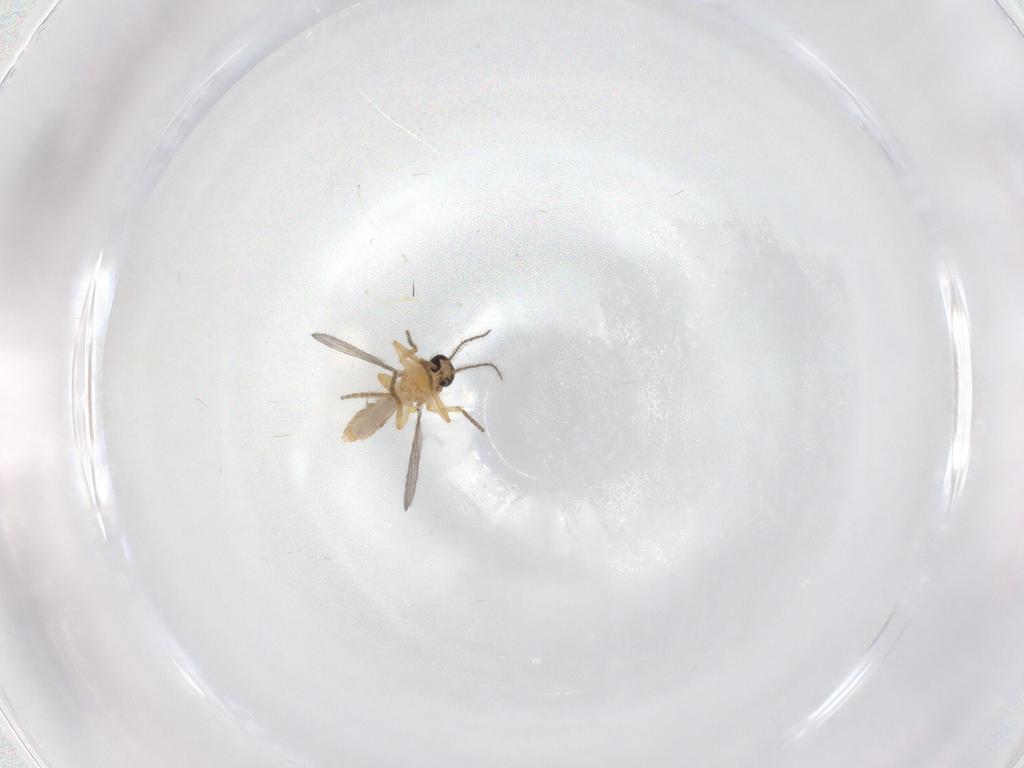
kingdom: Animalia
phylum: Arthropoda
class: Insecta
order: Diptera
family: Ceratopogonidae
